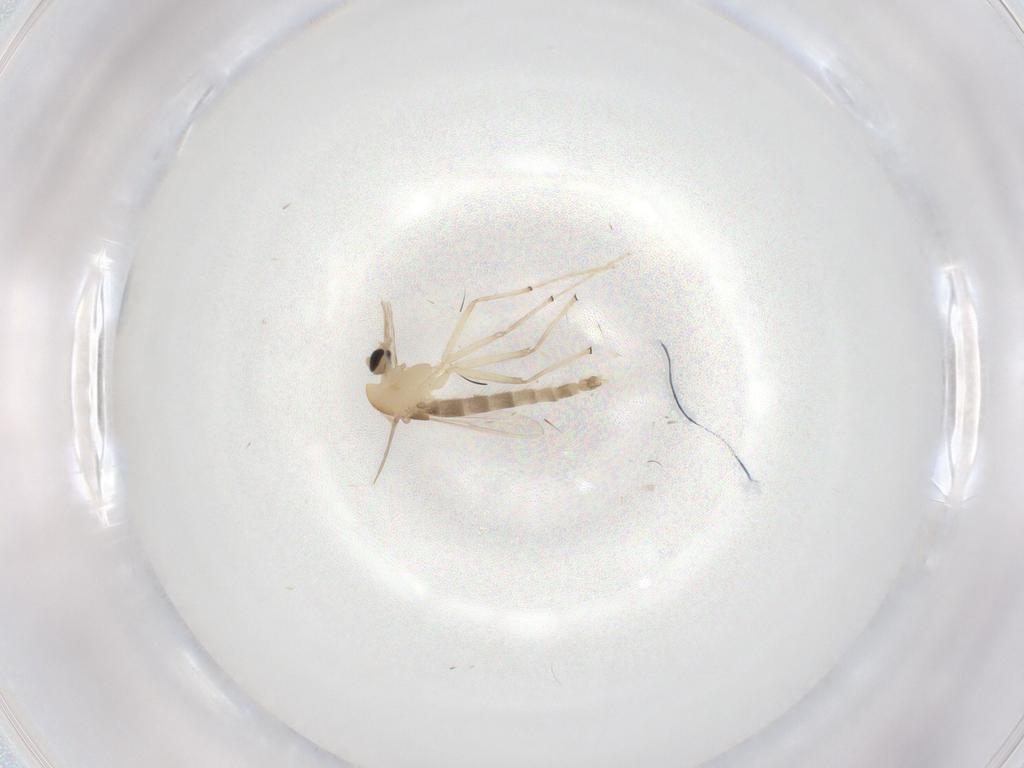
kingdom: Animalia
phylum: Arthropoda
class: Insecta
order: Diptera
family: Chironomidae
